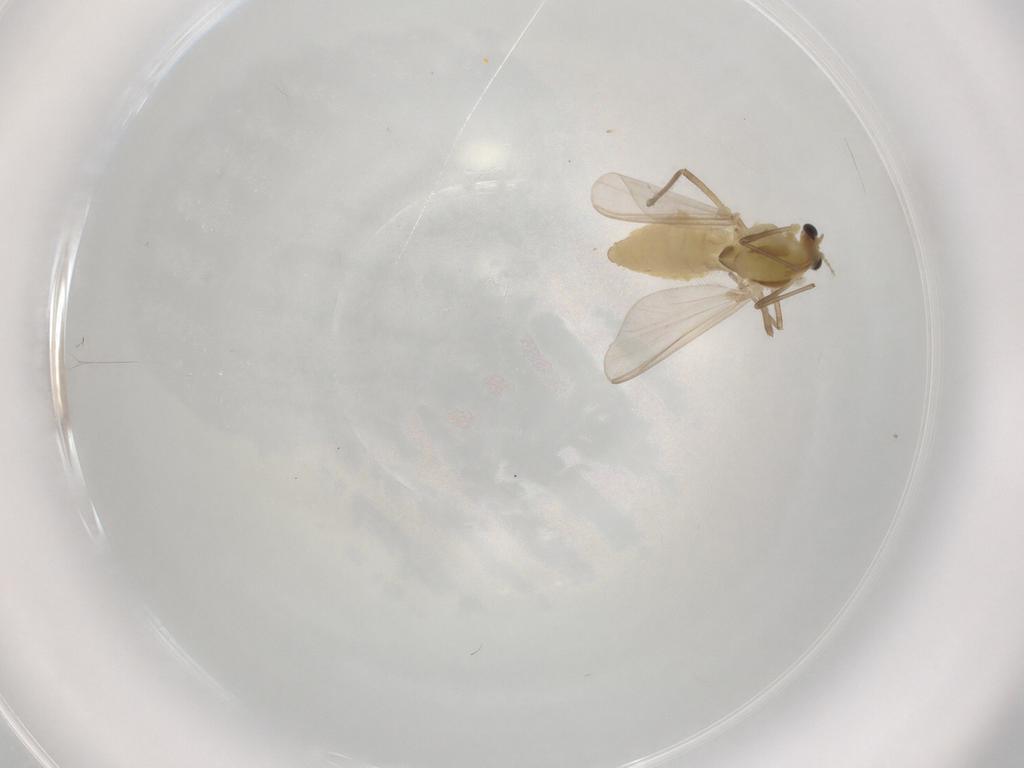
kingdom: Animalia
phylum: Arthropoda
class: Insecta
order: Diptera
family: Chironomidae
